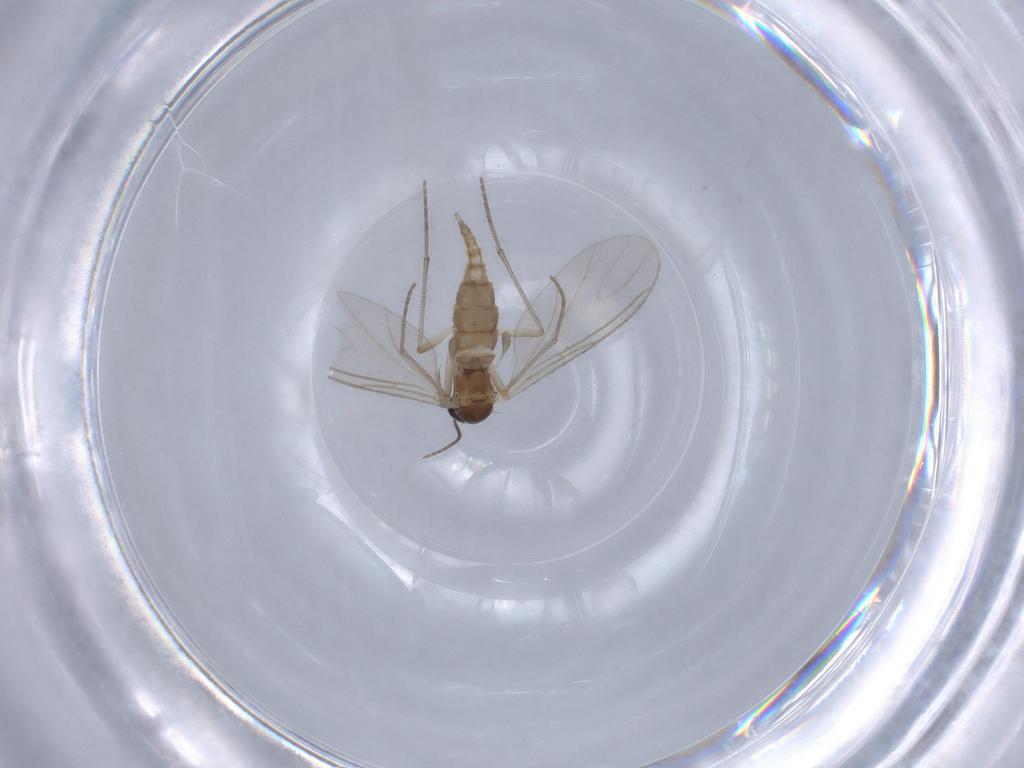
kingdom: Animalia
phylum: Arthropoda
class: Insecta
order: Diptera
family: Sciaridae
